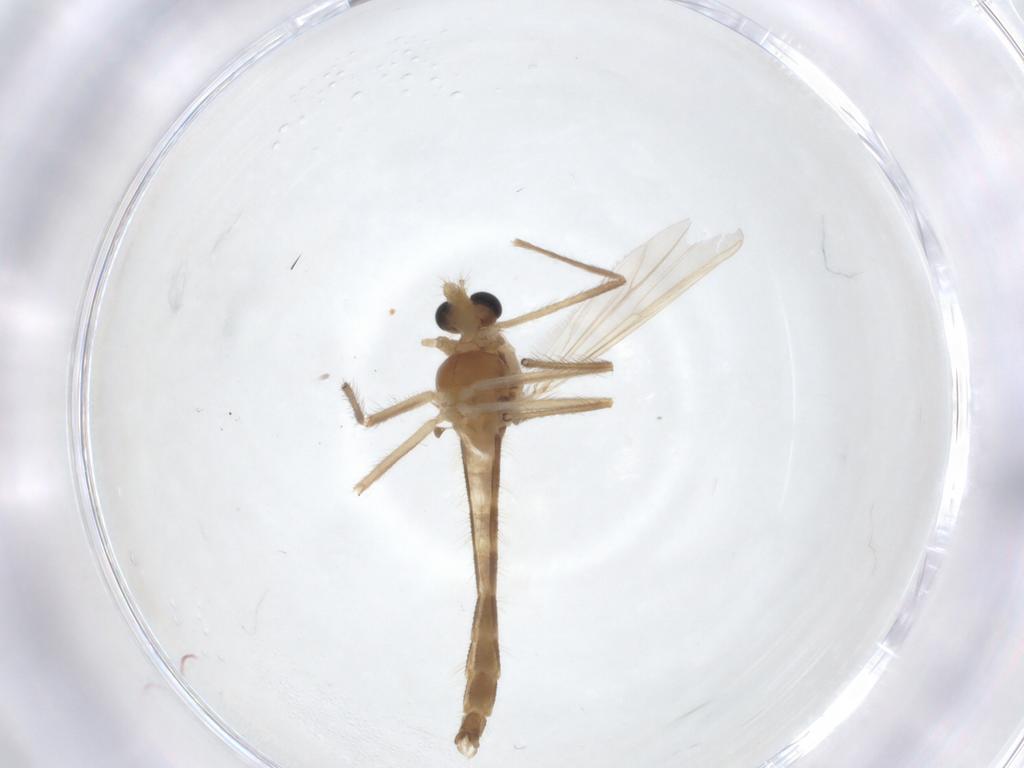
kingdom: Animalia
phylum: Arthropoda
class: Insecta
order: Diptera
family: Chironomidae
